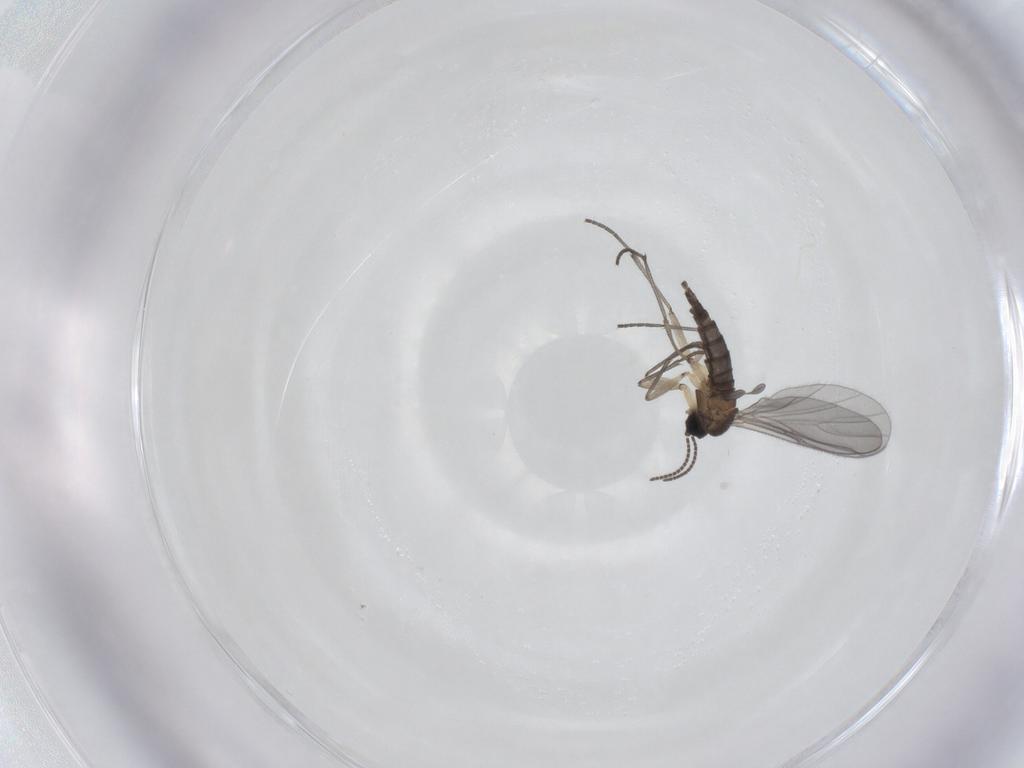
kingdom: Animalia
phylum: Arthropoda
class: Insecta
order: Diptera
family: Sciaridae
